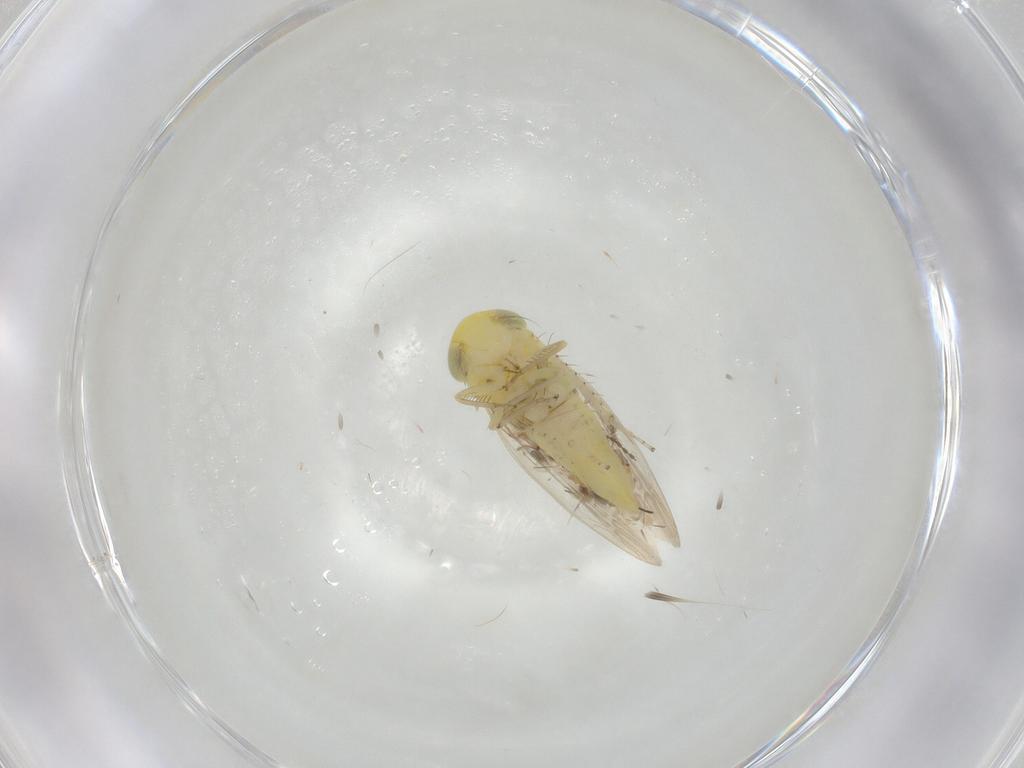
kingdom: Animalia
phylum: Arthropoda
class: Insecta
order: Hemiptera
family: Cicadellidae
